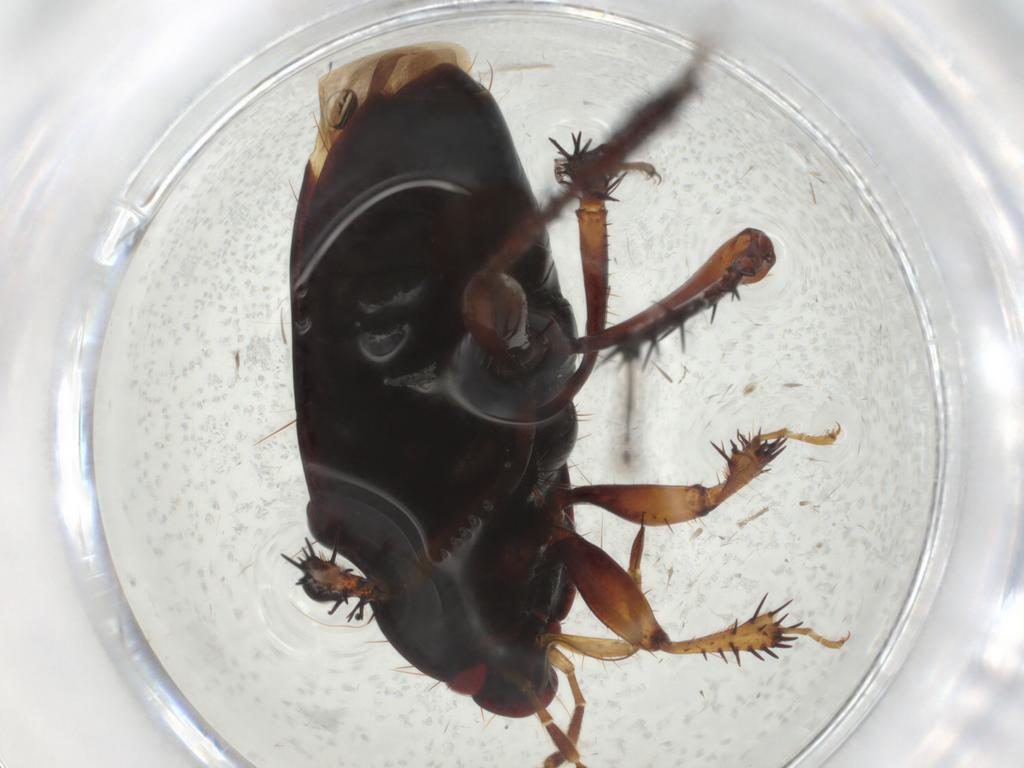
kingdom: Animalia
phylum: Arthropoda
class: Insecta
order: Hemiptera
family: Cydnidae
